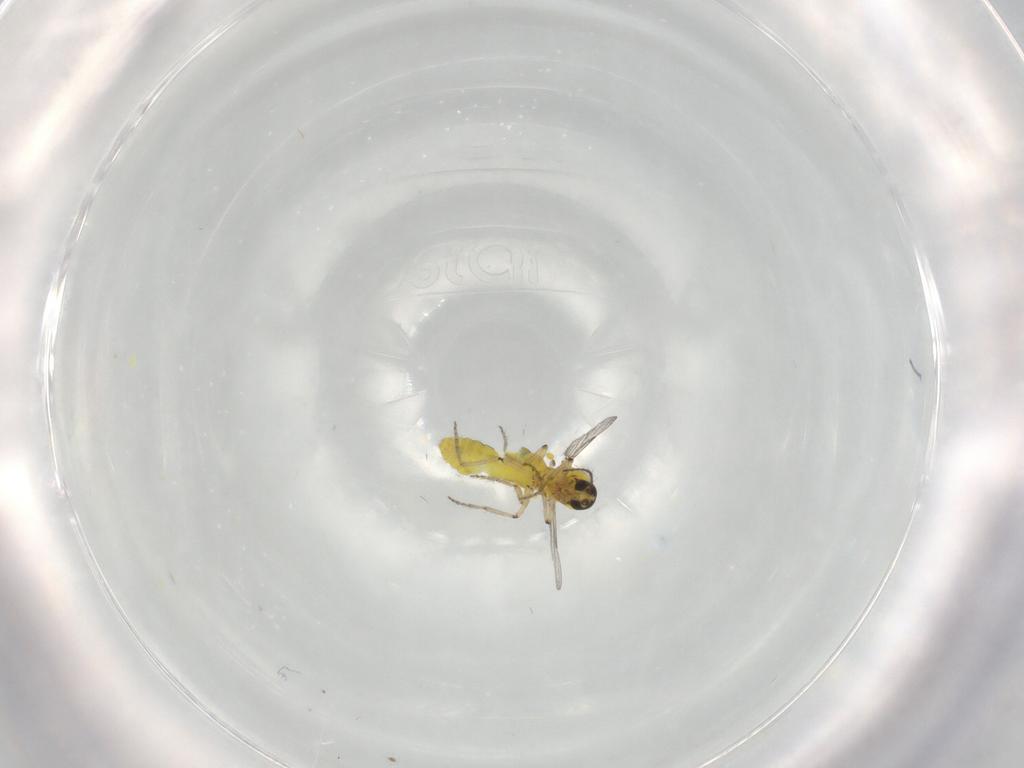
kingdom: Animalia
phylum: Arthropoda
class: Insecta
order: Diptera
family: Ceratopogonidae
